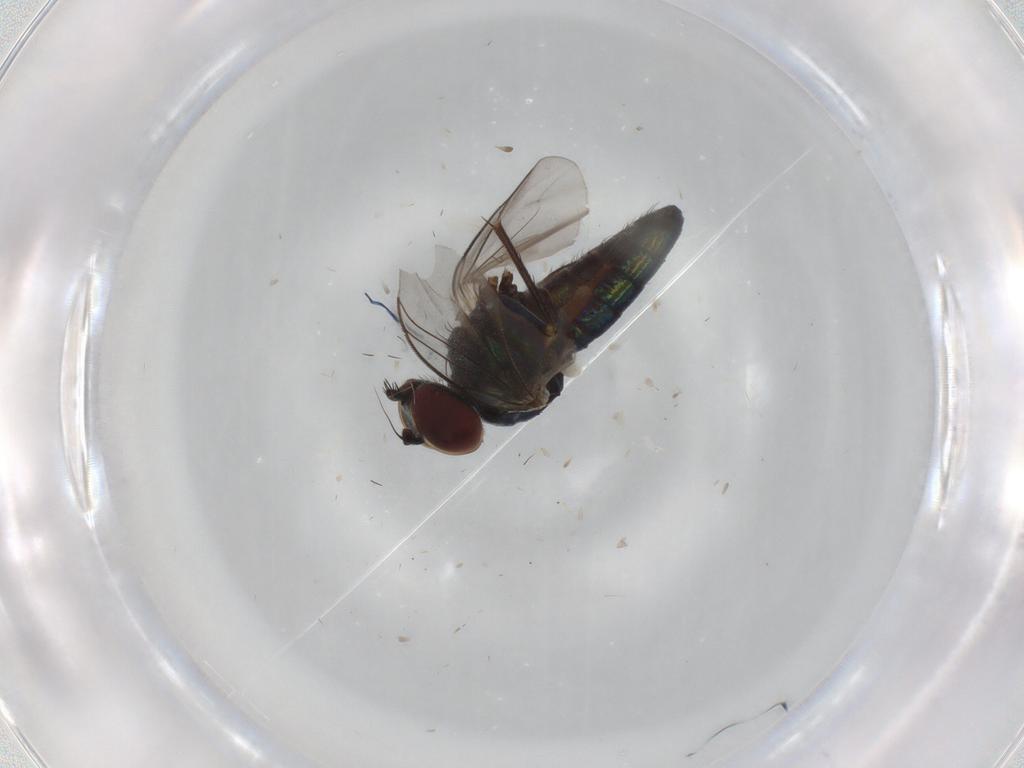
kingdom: Animalia
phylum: Arthropoda
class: Insecta
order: Diptera
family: Dolichopodidae
